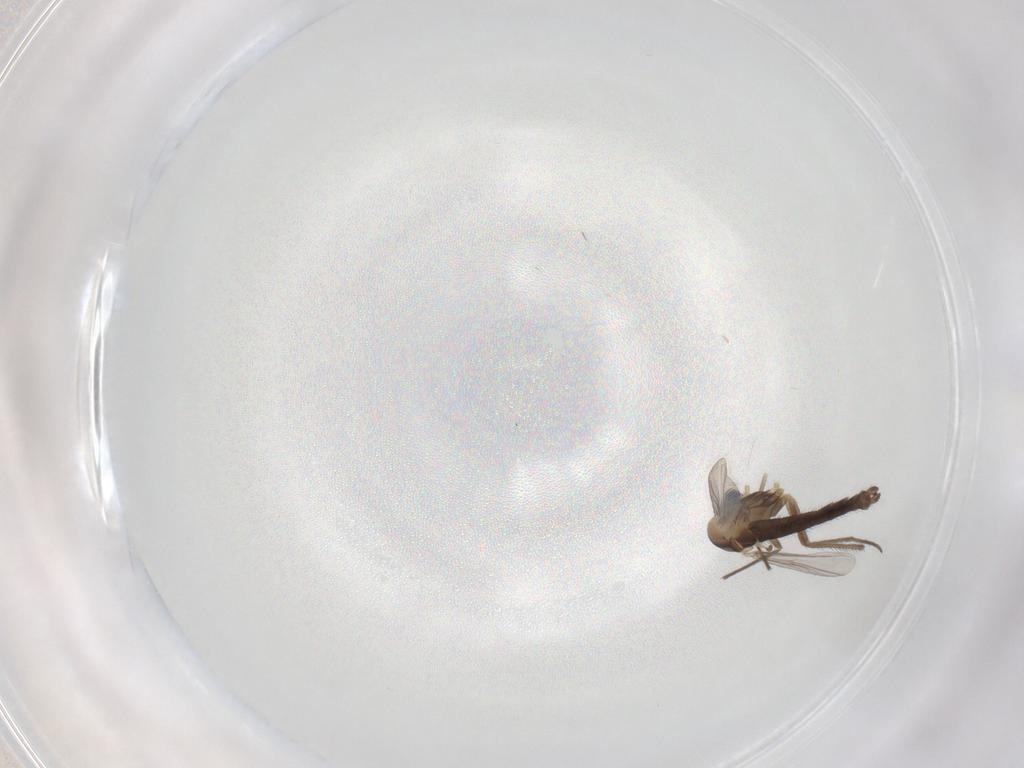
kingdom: Animalia
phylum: Arthropoda
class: Insecta
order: Diptera
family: Chironomidae
